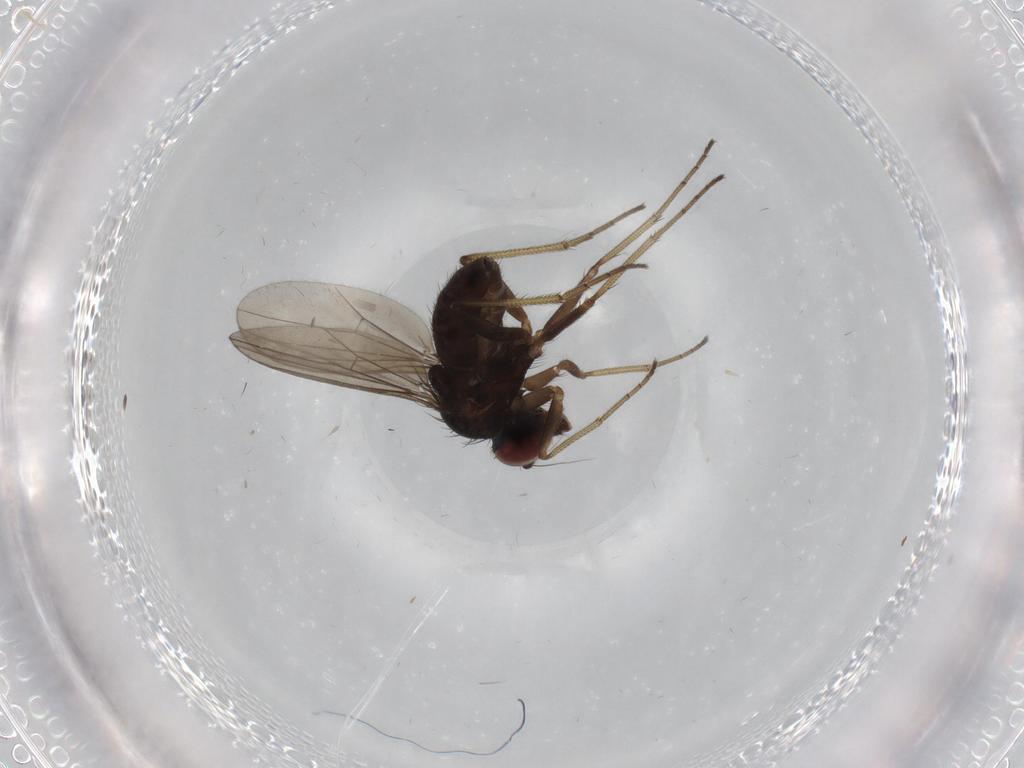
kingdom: Animalia
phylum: Arthropoda
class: Insecta
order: Diptera
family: Dolichopodidae
